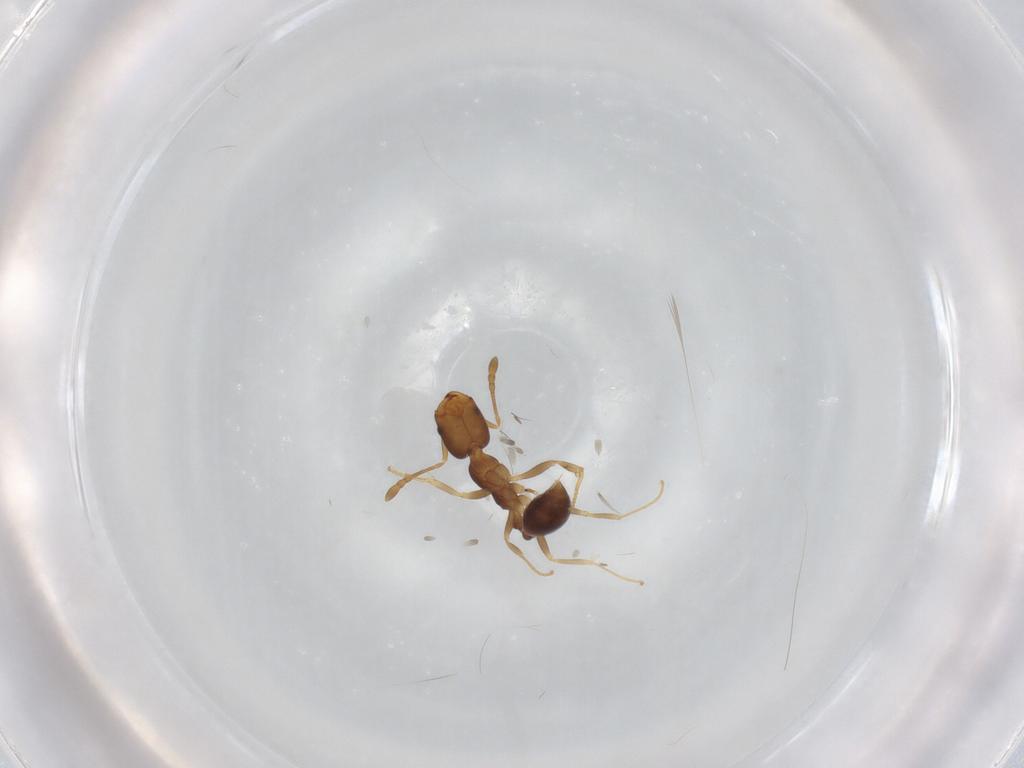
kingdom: Animalia
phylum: Arthropoda
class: Insecta
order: Hymenoptera
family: Formicidae
